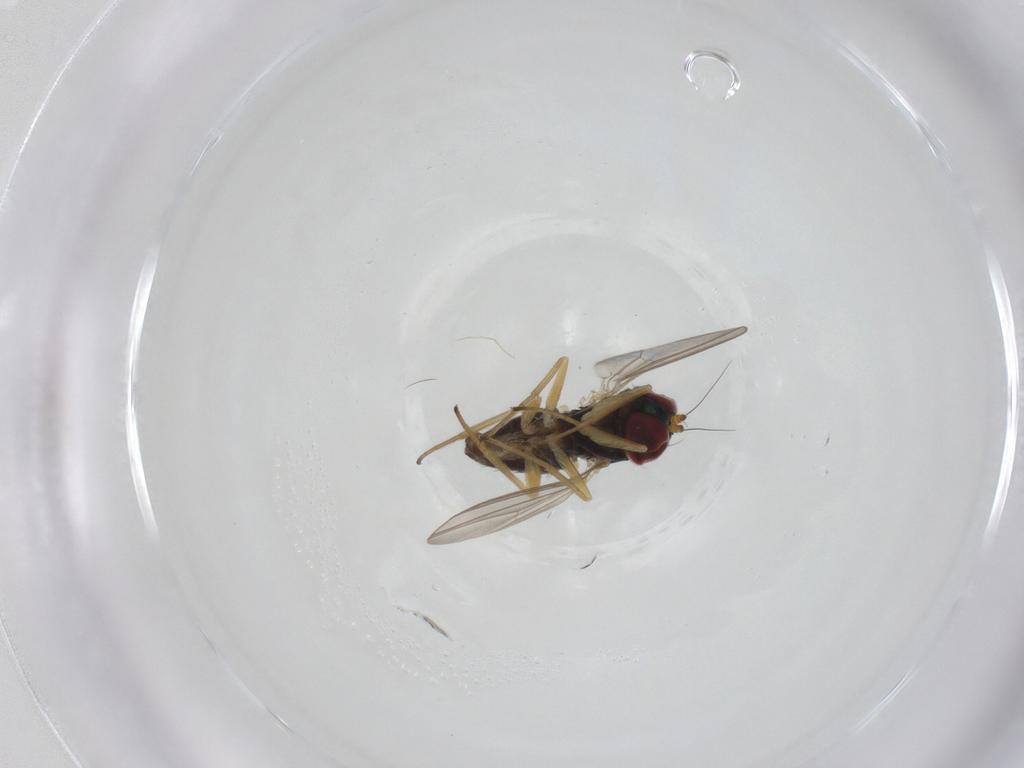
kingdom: Animalia
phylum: Arthropoda
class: Insecta
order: Diptera
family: Dolichopodidae
